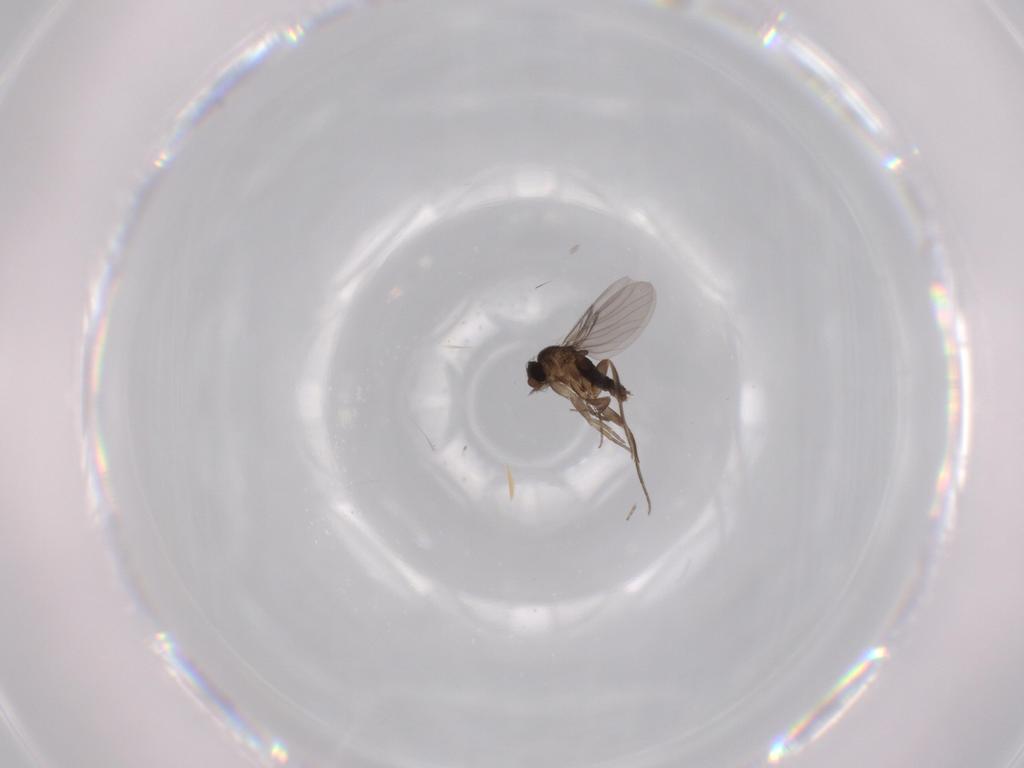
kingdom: Animalia
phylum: Arthropoda
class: Insecta
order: Diptera
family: Phoridae
